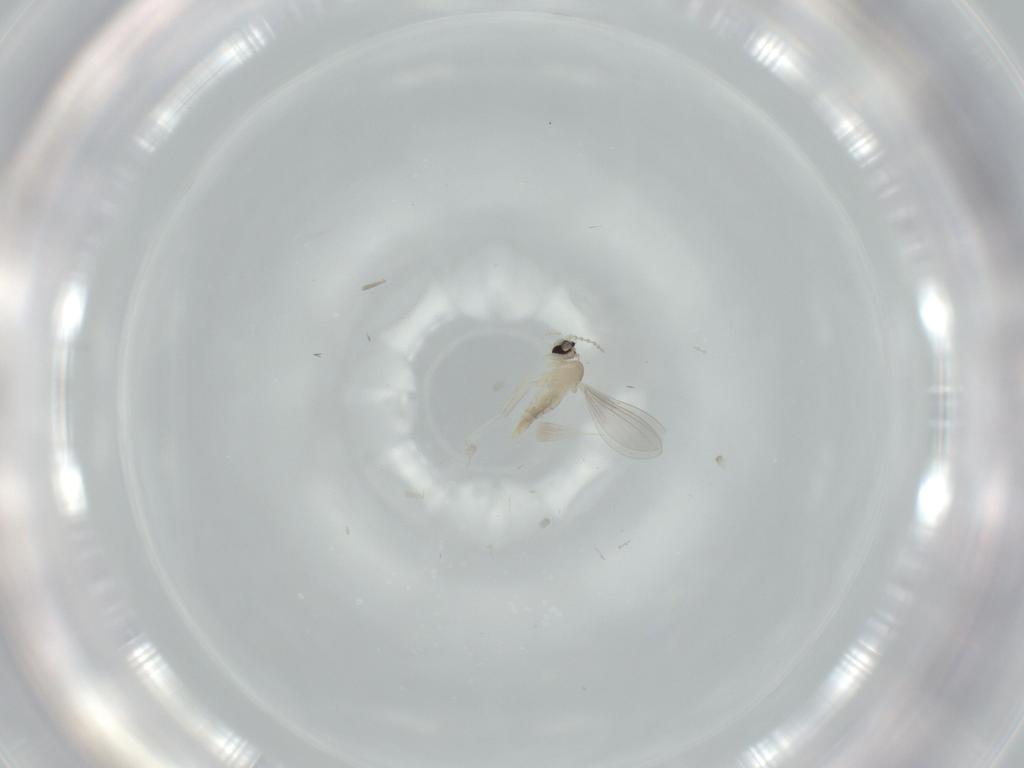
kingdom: Animalia
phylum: Arthropoda
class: Insecta
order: Diptera
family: Cecidomyiidae
